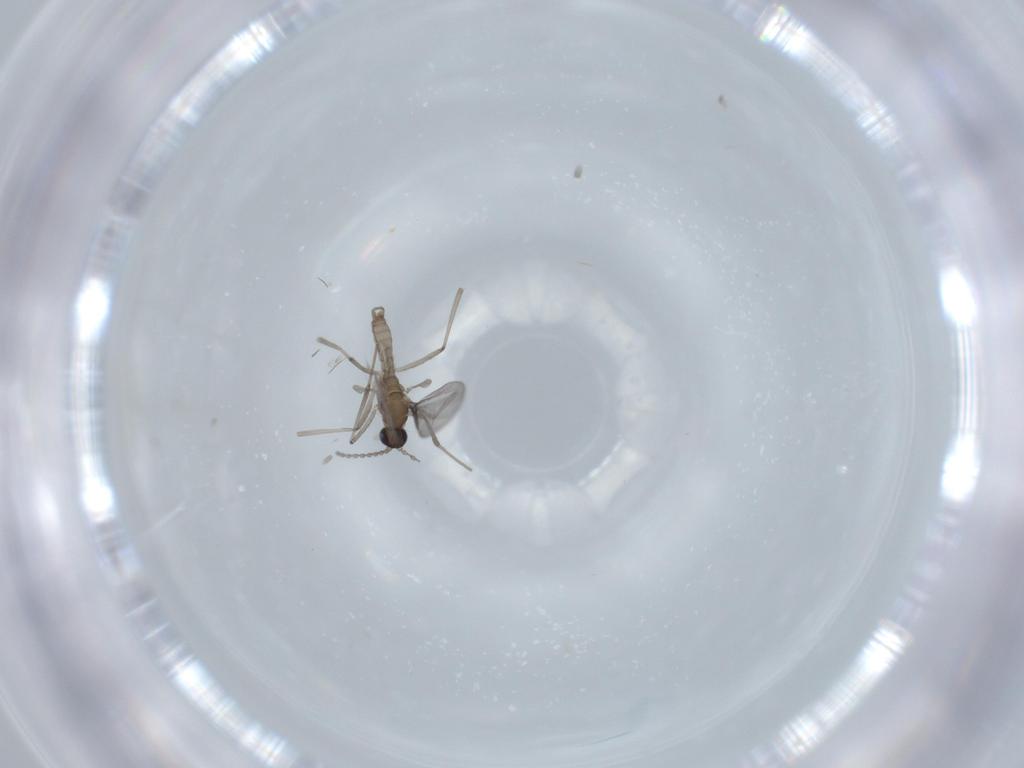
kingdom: Animalia
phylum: Arthropoda
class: Insecta
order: Diptera
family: Cecidomyiidae
